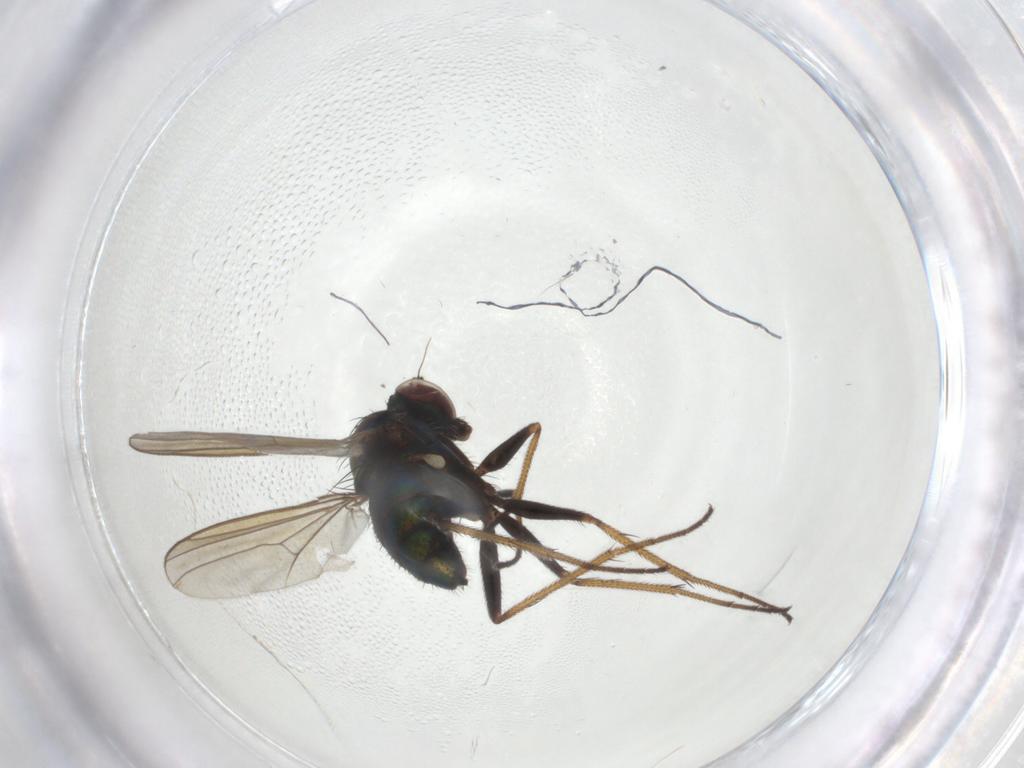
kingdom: Animalia
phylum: Arthropoda
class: Insecta
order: Diptera
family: Dolichopodidae
